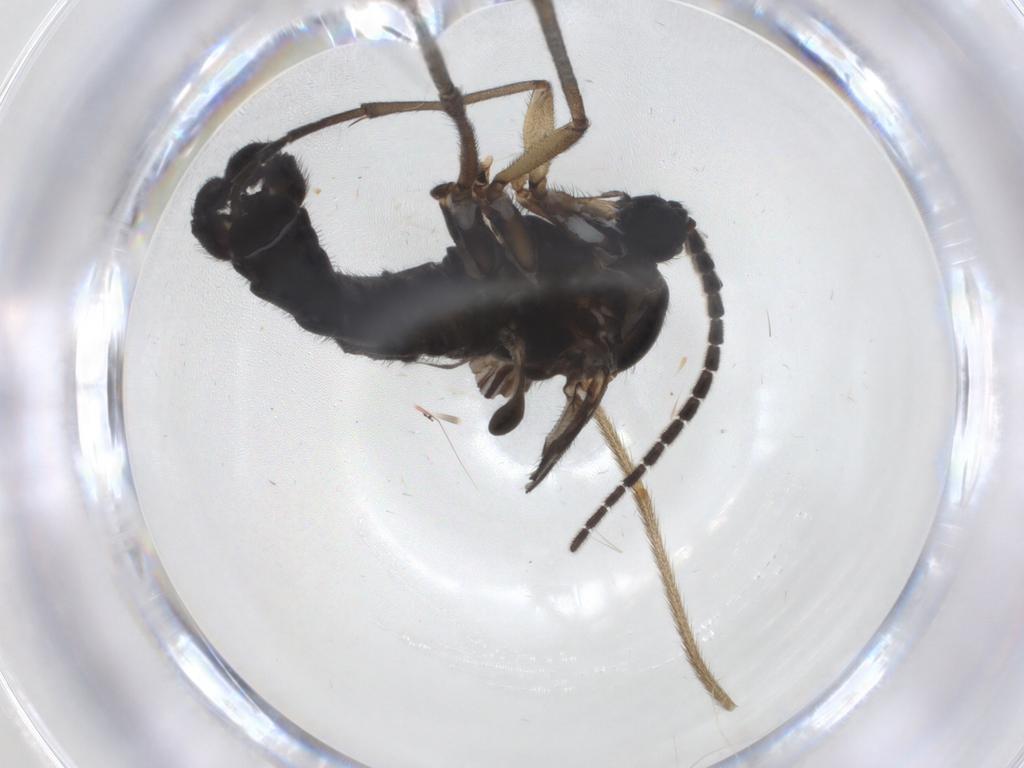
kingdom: Animalia
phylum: Arthropoda
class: Insecta
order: Diptera
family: Sciaridae
